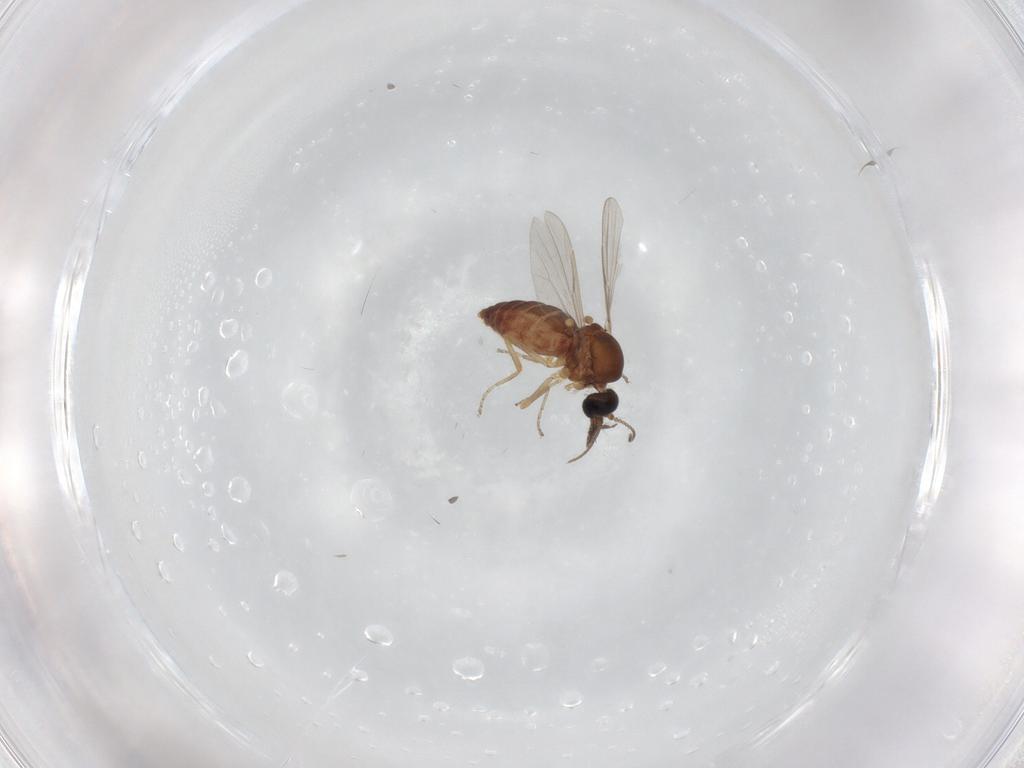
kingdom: Animalia
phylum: Arthropoda
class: Insecta
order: Diptera
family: Ceratopogonidae
